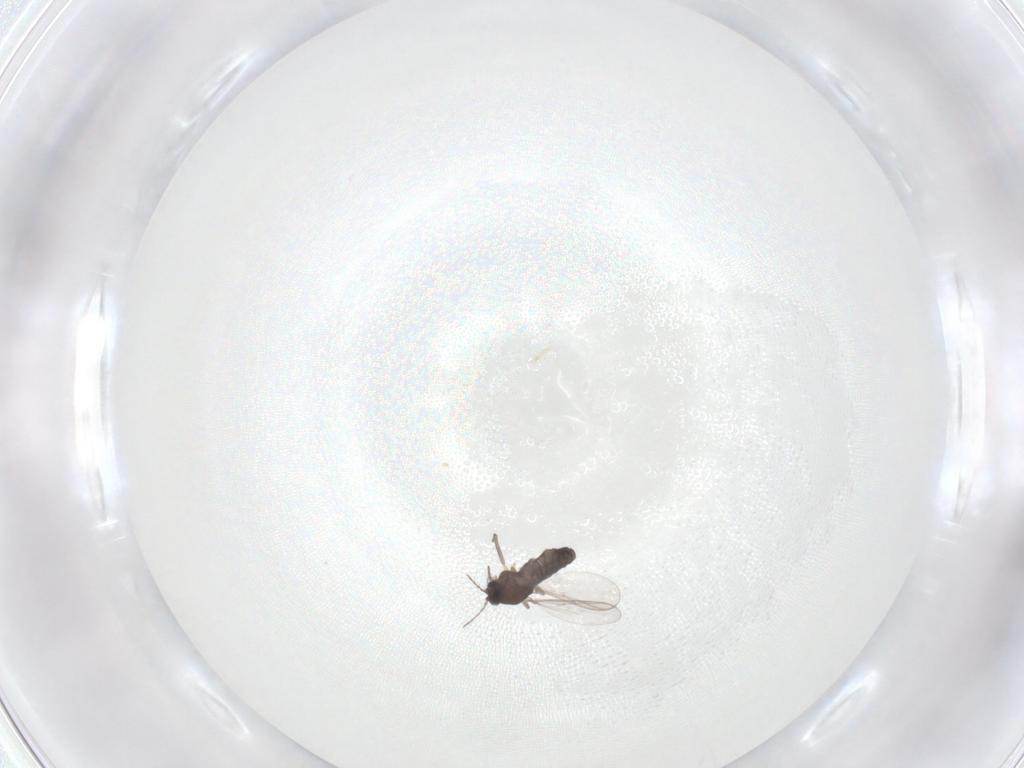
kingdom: Animalia
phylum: Arthropoda
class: Insecta
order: Diptera
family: Chironomidae
